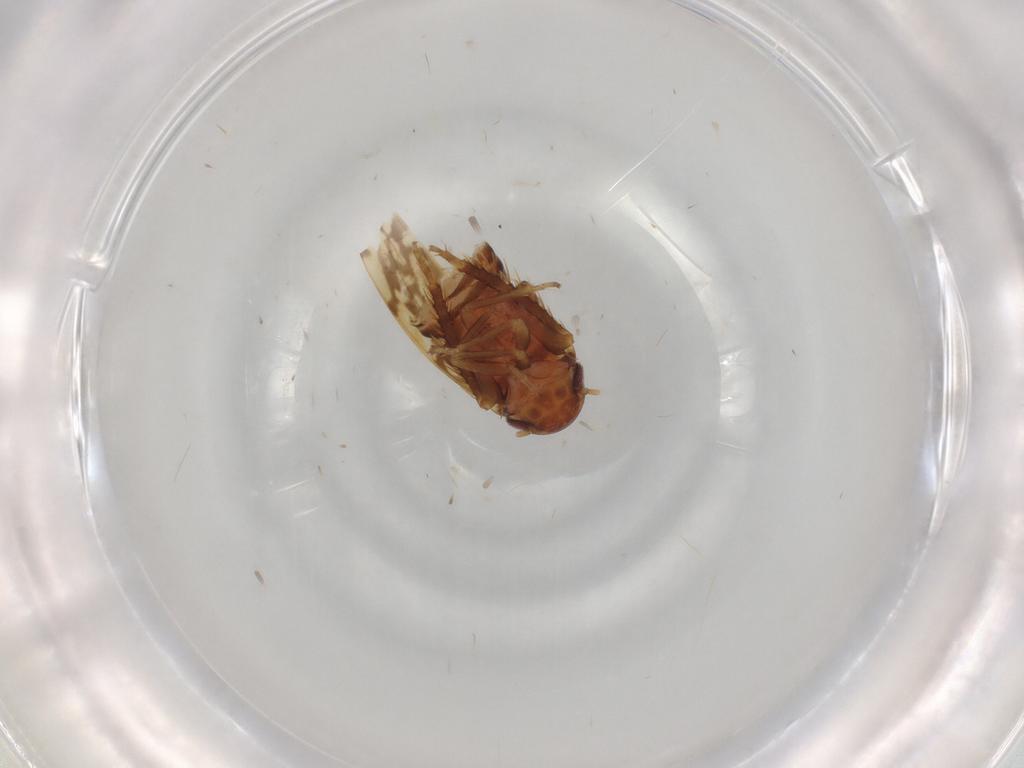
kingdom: Animalia
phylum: Arthropoda
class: Insecta
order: Hemiptera
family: Cicadellidae
